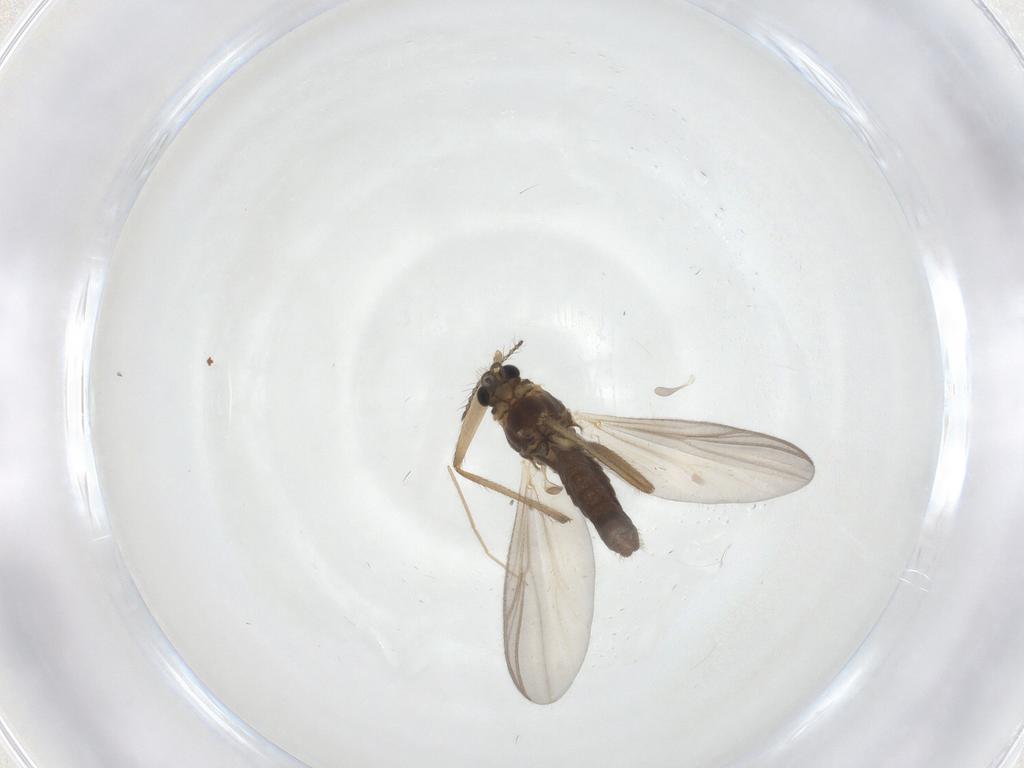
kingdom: Animalia
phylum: Arthropoda
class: Insecta
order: Diptera
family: Chironomidae
